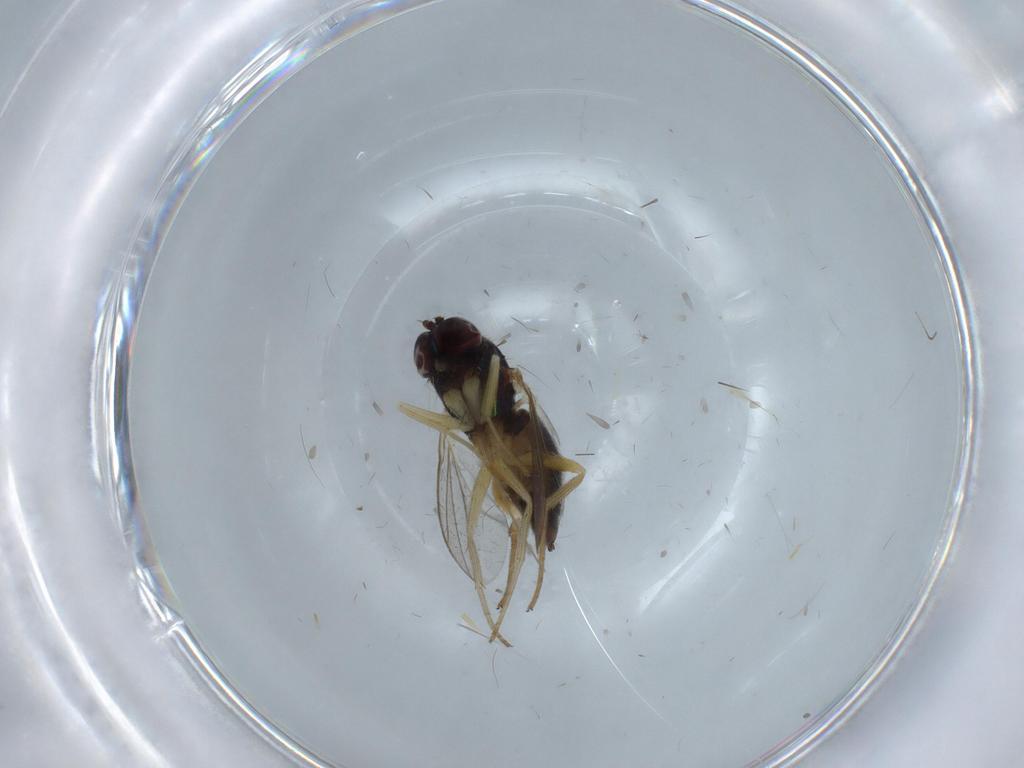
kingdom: Animalia
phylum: Arthropoda
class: Insecta
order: Diptera
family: Dolichopodidae
